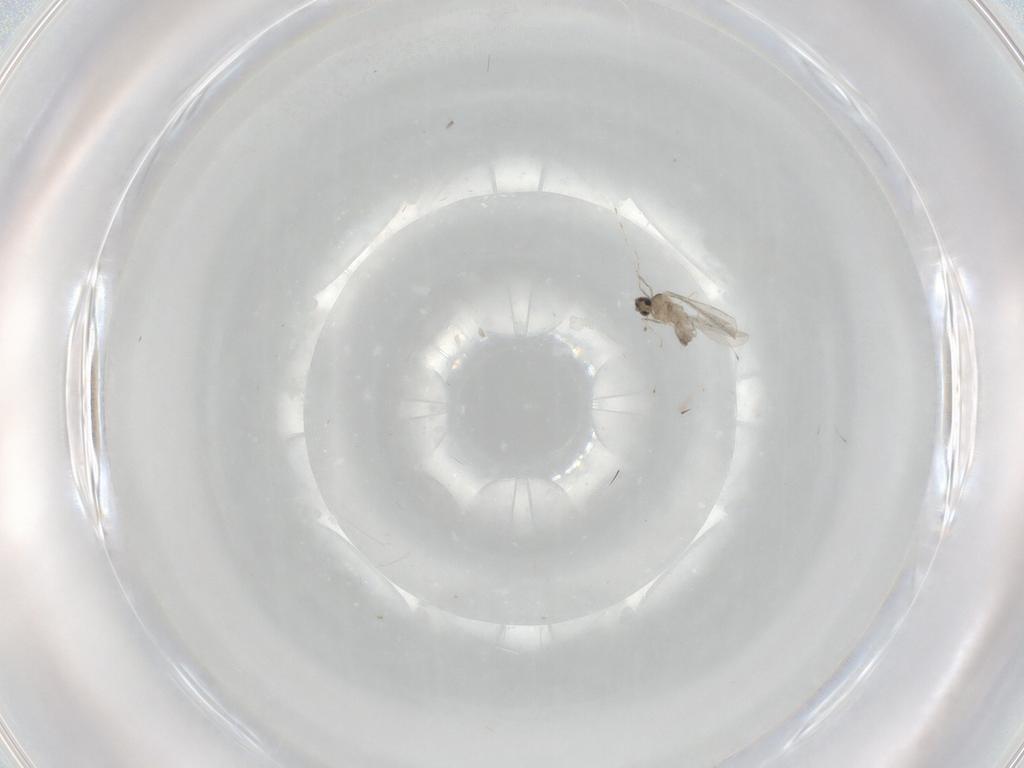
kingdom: Animalia
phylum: Arthropoda
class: Insecta
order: Diptera
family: Cecidomyiidae
